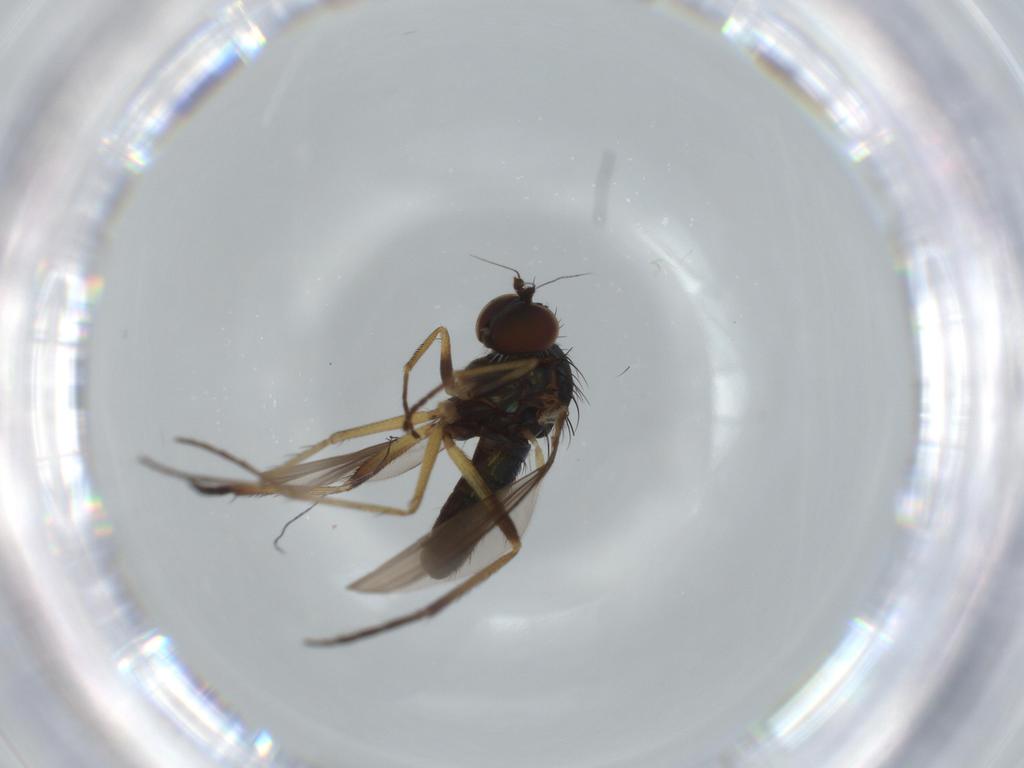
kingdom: Animalia
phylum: Arthropoda
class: Insecta
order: Diptera
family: Dolichopodidae
